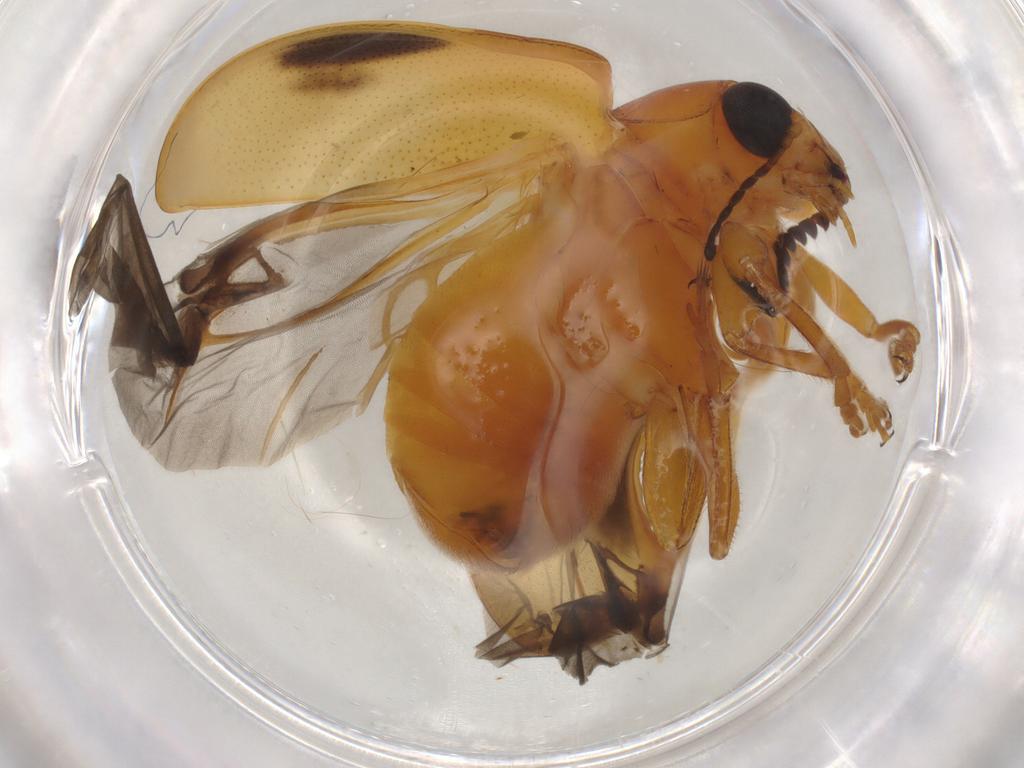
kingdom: Animalia
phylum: Arthropoda
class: Insecta
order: Coleoptera
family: Chrysomelidae
